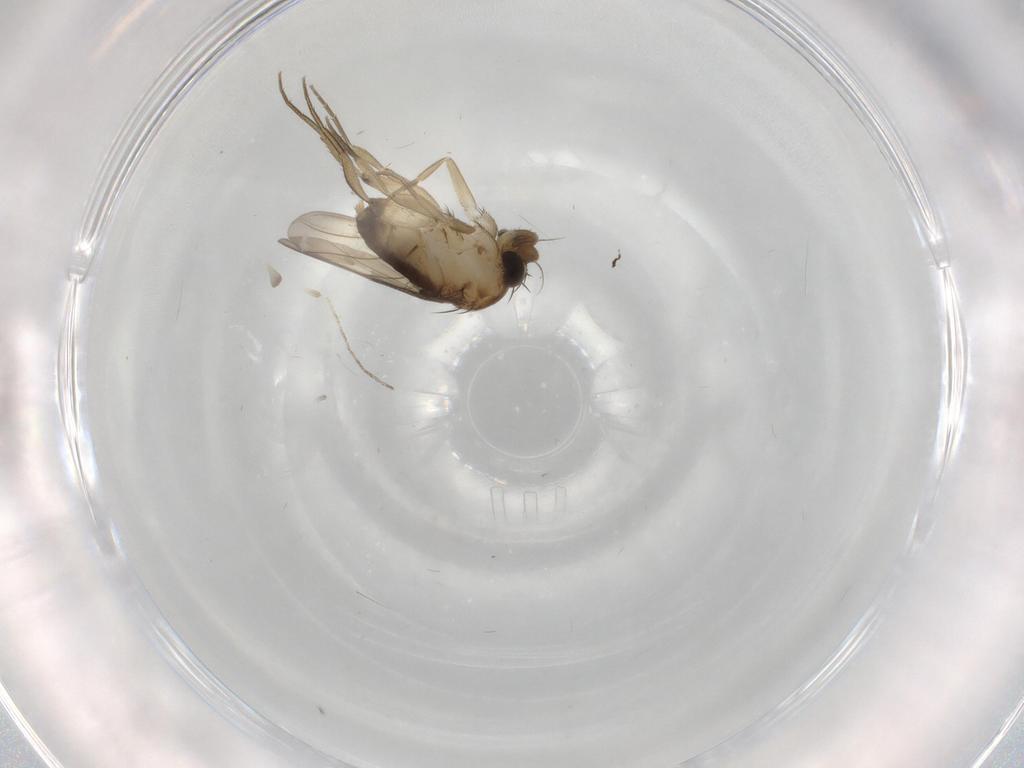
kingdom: Animalia
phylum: Arthropoda
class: Insecta
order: Diptera
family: Phoridae
